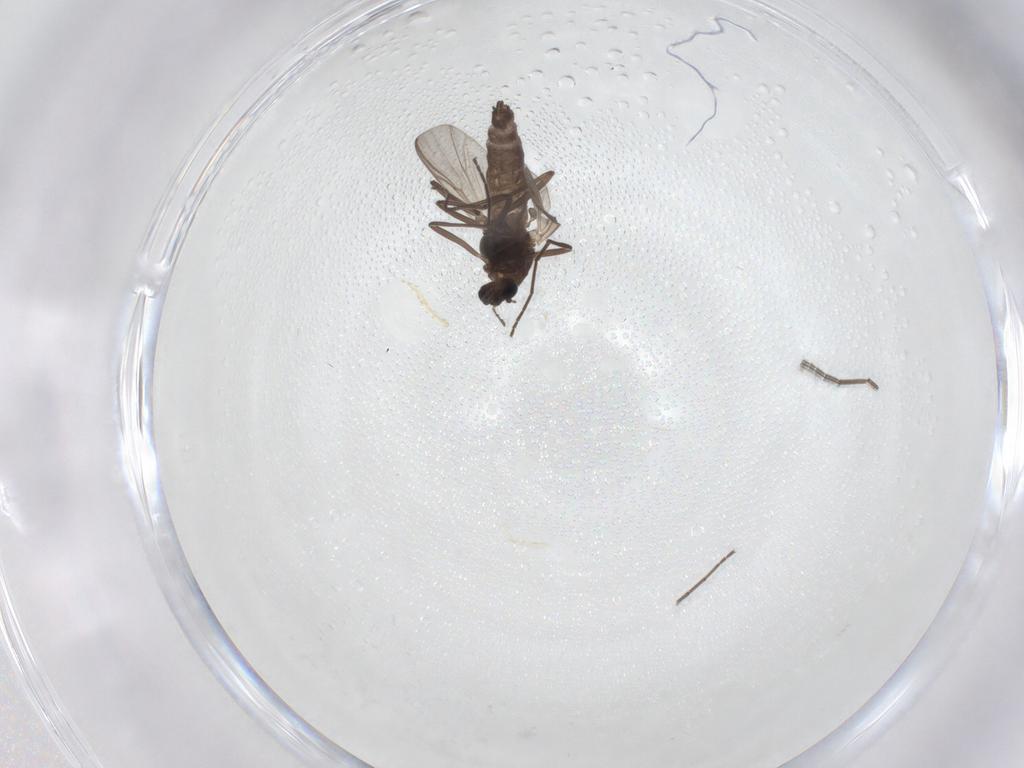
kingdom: Animalia
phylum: Arthropoda
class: Insecta
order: Diptera
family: Chironomidae
